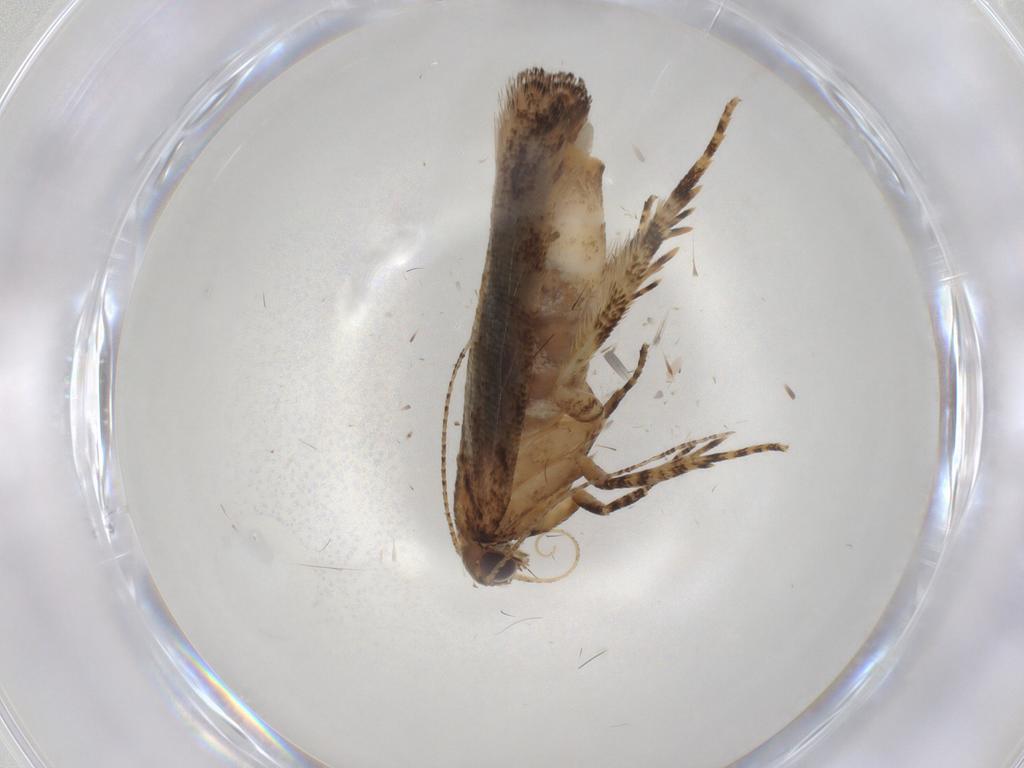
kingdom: Animalia
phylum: Arthropoda
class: Insecta
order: Lepidoptera
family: Gelechiidae
